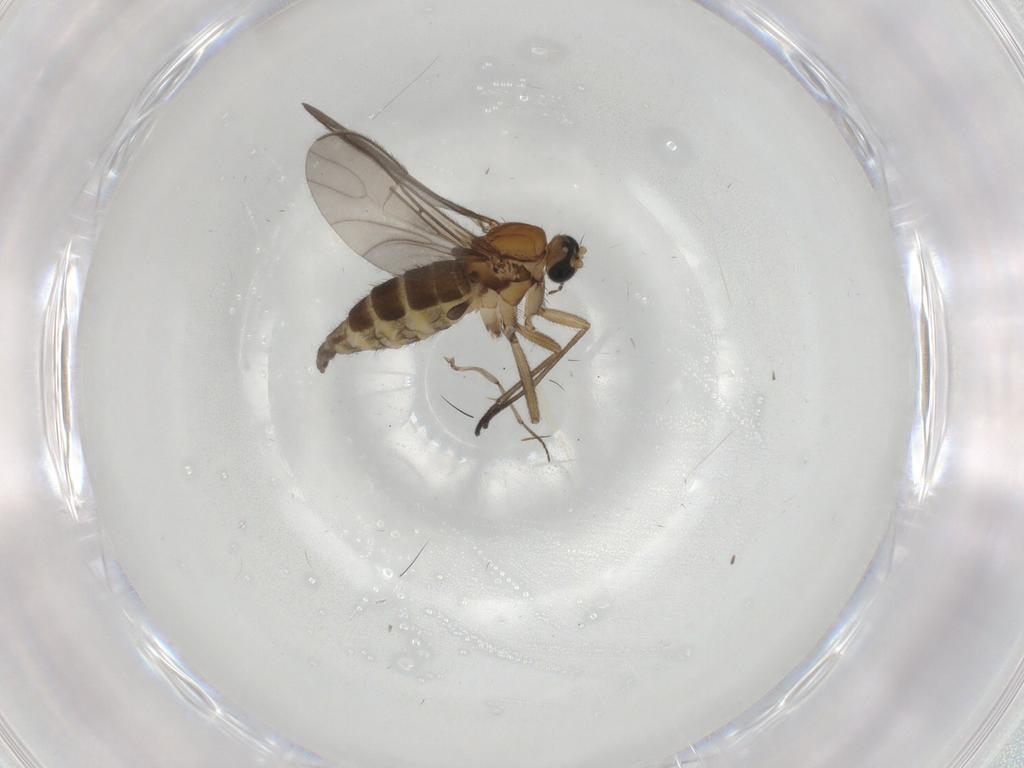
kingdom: Animalia
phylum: Arthropoda
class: Insecta
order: Diptera
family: Sciaridae
